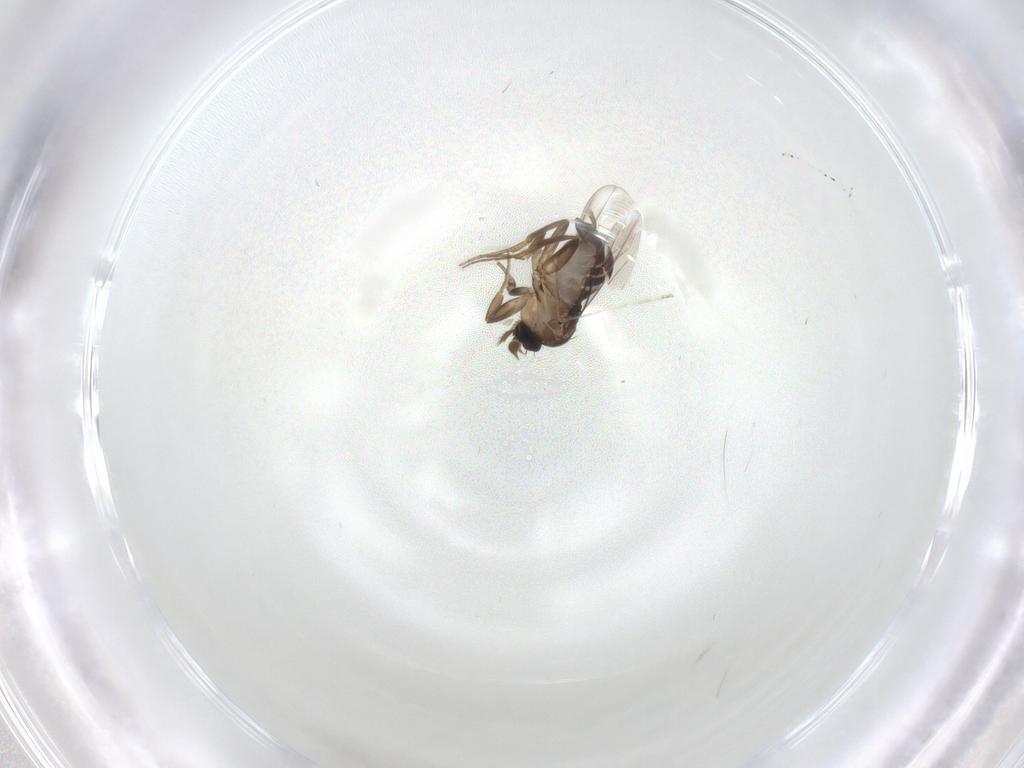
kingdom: Animalia
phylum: Arthropoda
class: Insecta
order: Diptera
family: Phoridae
